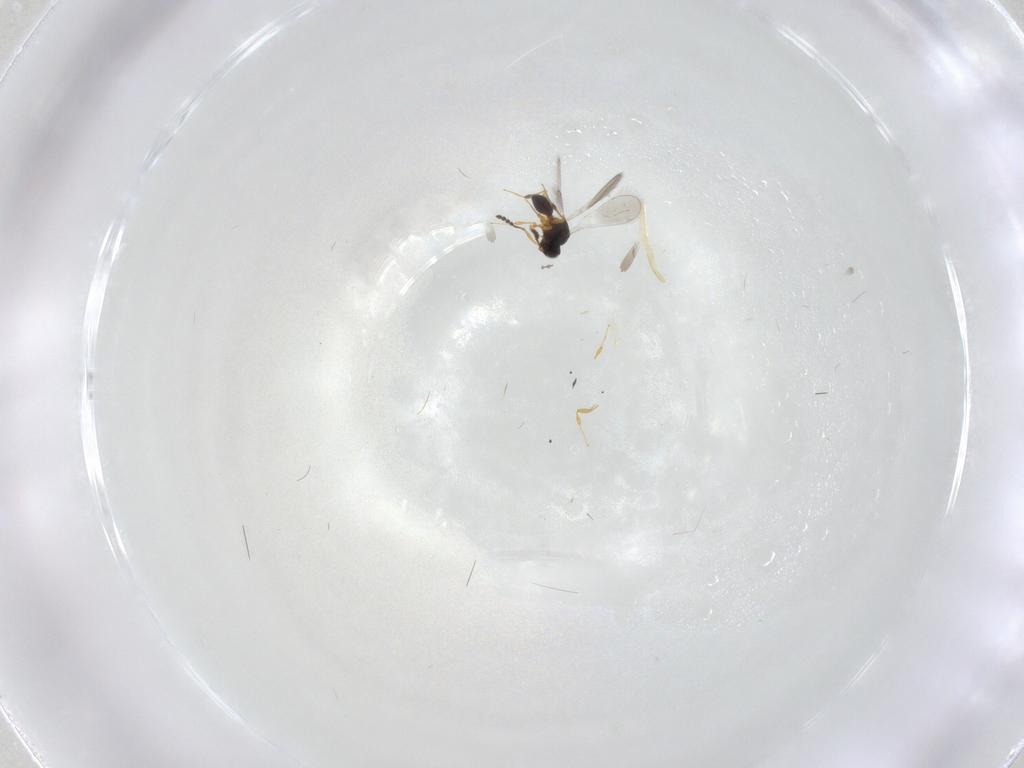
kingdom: Animalia
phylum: Arthropoda
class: Insecta
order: Hymenoptera
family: Platygastridae
